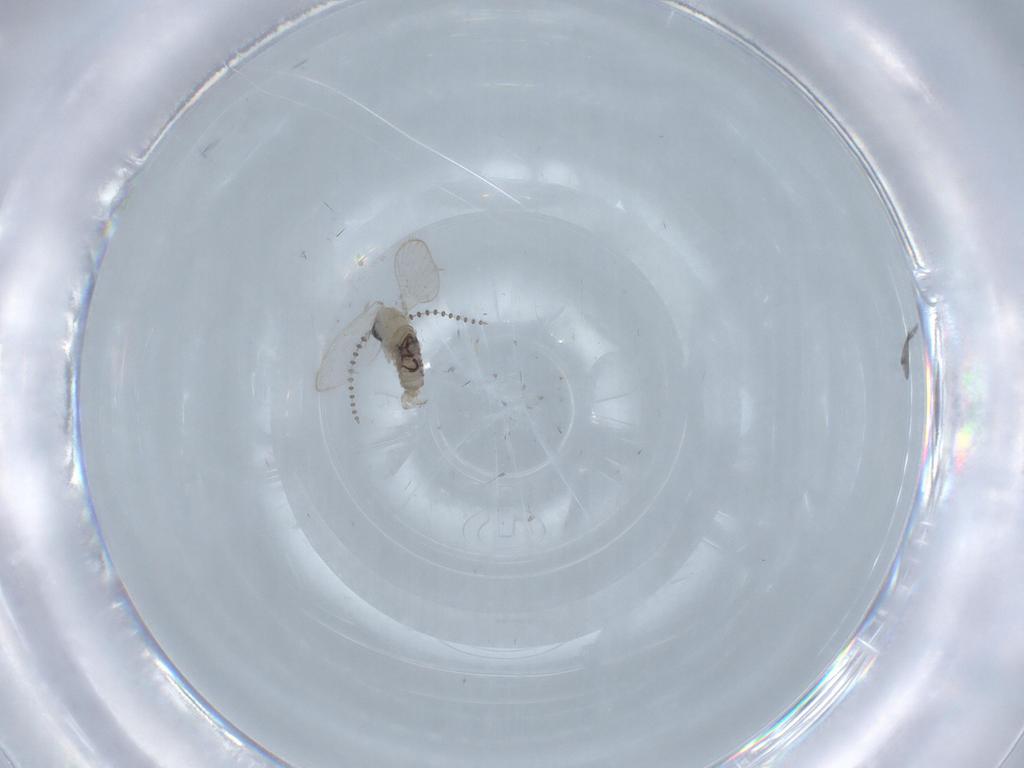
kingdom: Animalia
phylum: Arthropoda
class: Insecta
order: Diptera
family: Psychodidae
